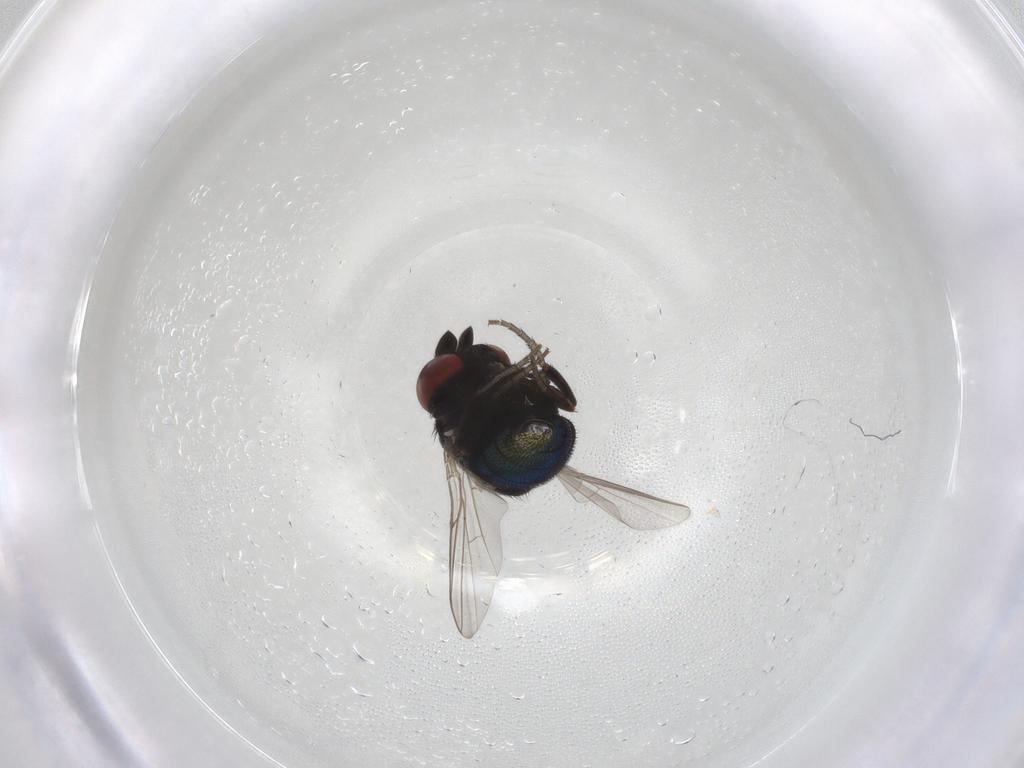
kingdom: Animalia
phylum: Arthropoda
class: Insecta
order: Diptera
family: Cryptochetidae
